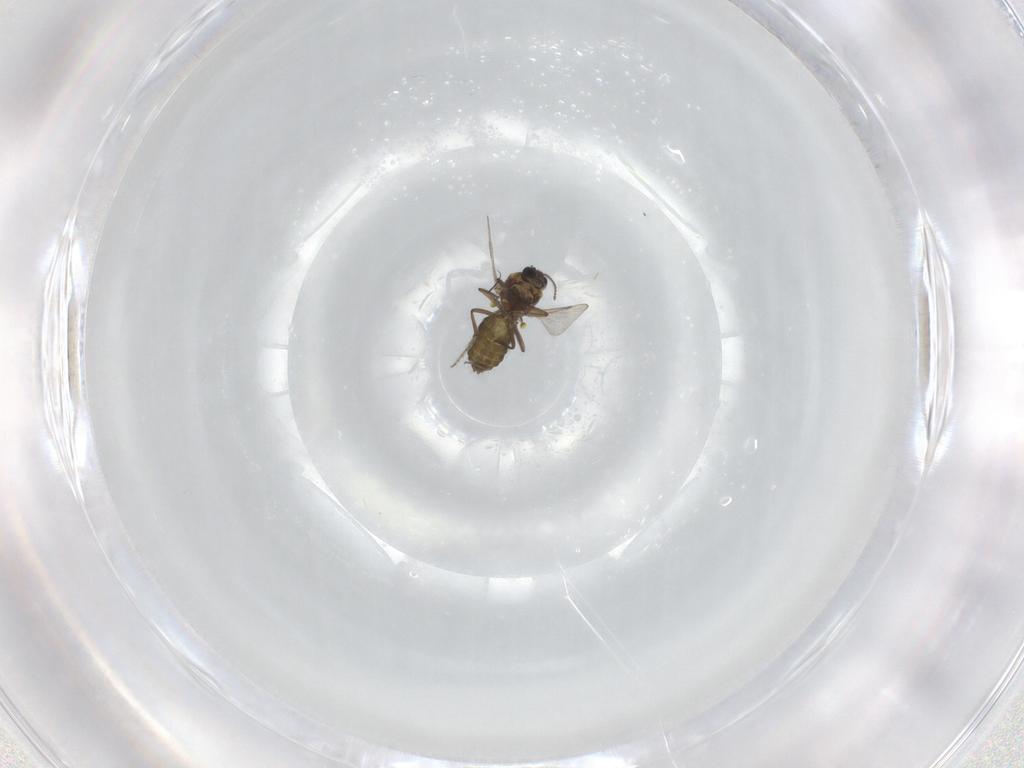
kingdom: Animalia
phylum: Arthropoda
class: Insecta
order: Diptera
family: Ceratopogonidae
